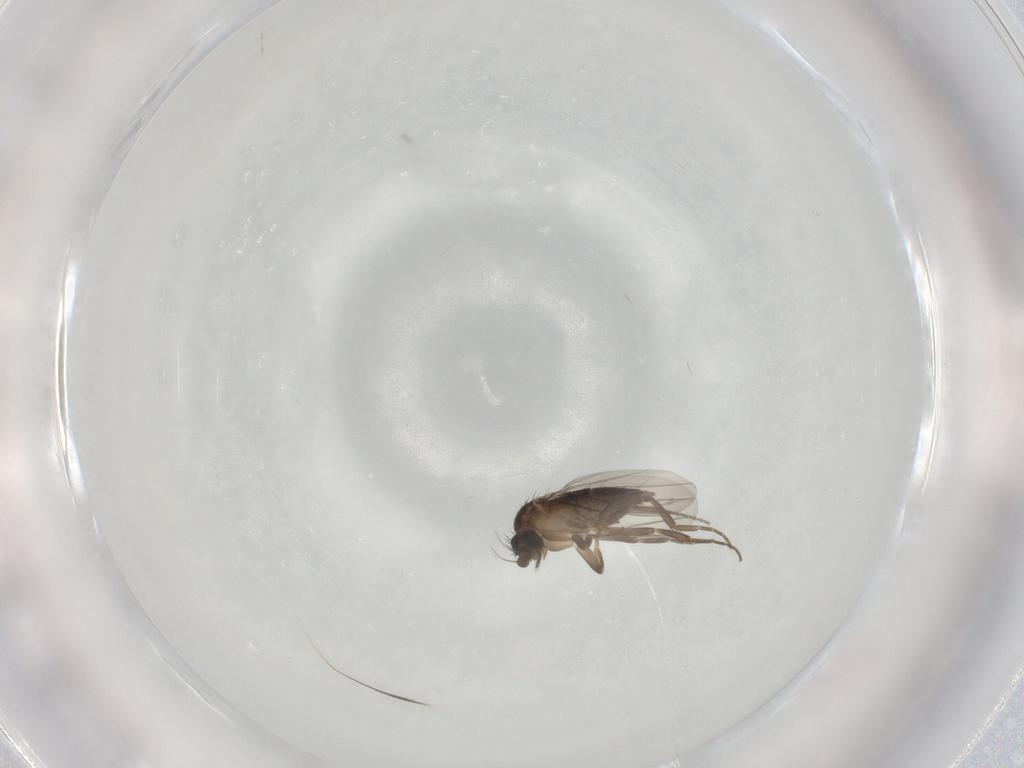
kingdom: Animalia
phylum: Arthropoda
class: Insecta
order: Diptera
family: Phoridae
